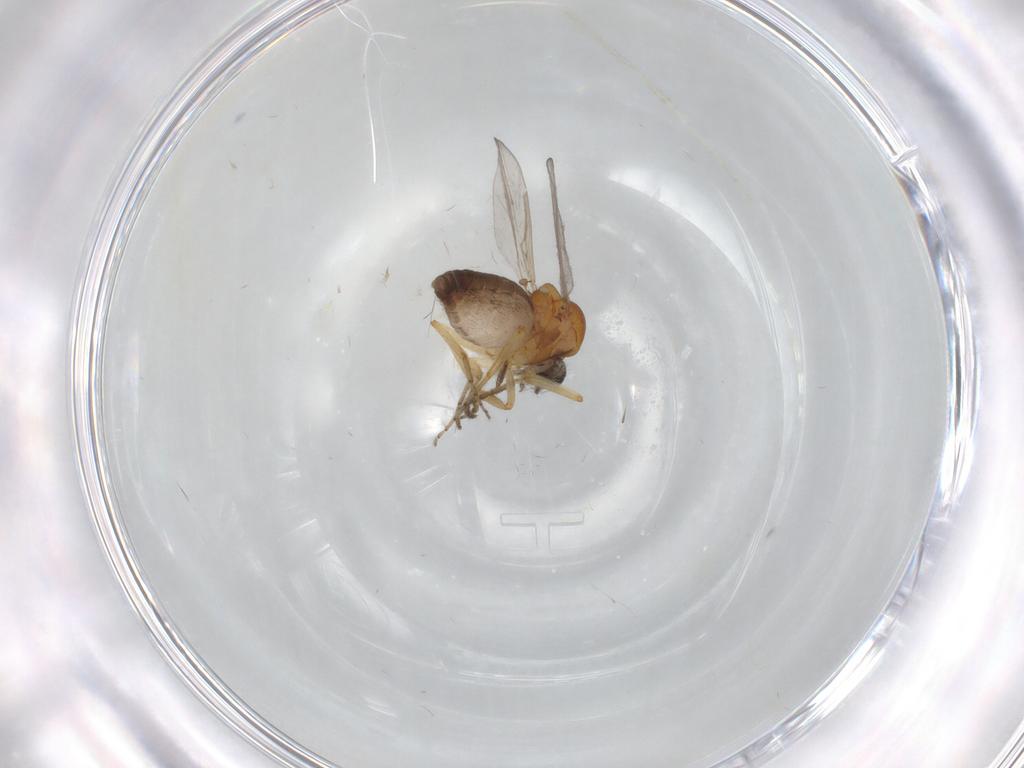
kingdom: Animalia
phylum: Arthropoda
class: Insecta
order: Diptera
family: Ceratopogonidae
